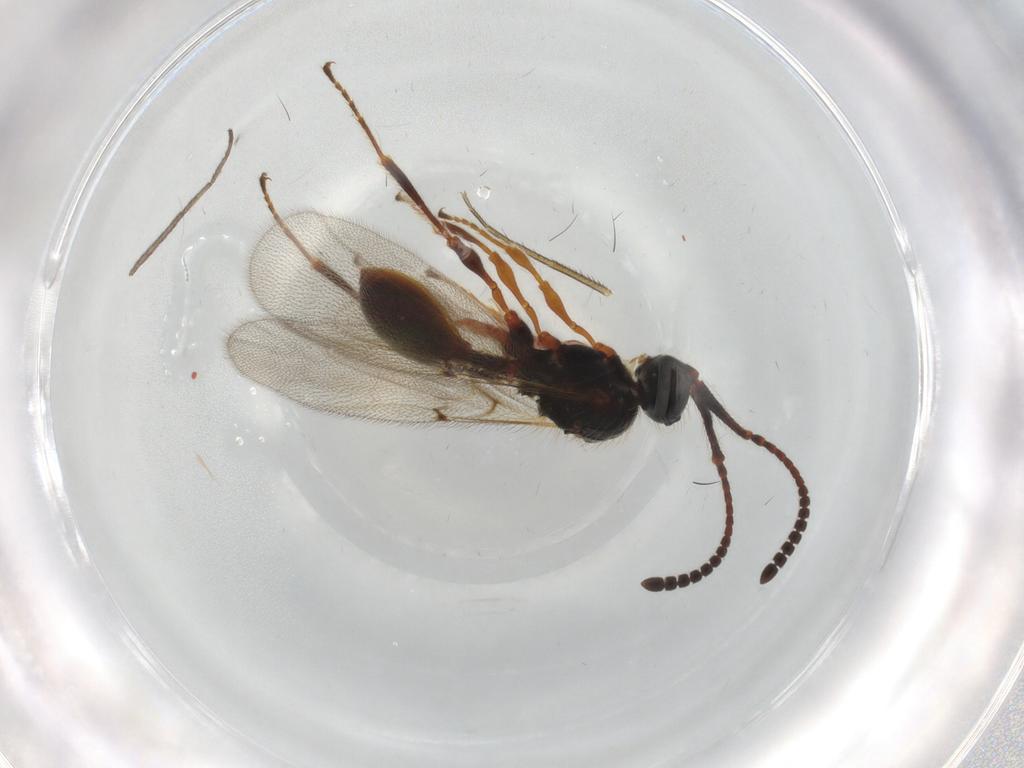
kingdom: Animalia
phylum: Arthropoda
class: Insecta
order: Hymenoptera
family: Diapriidae
